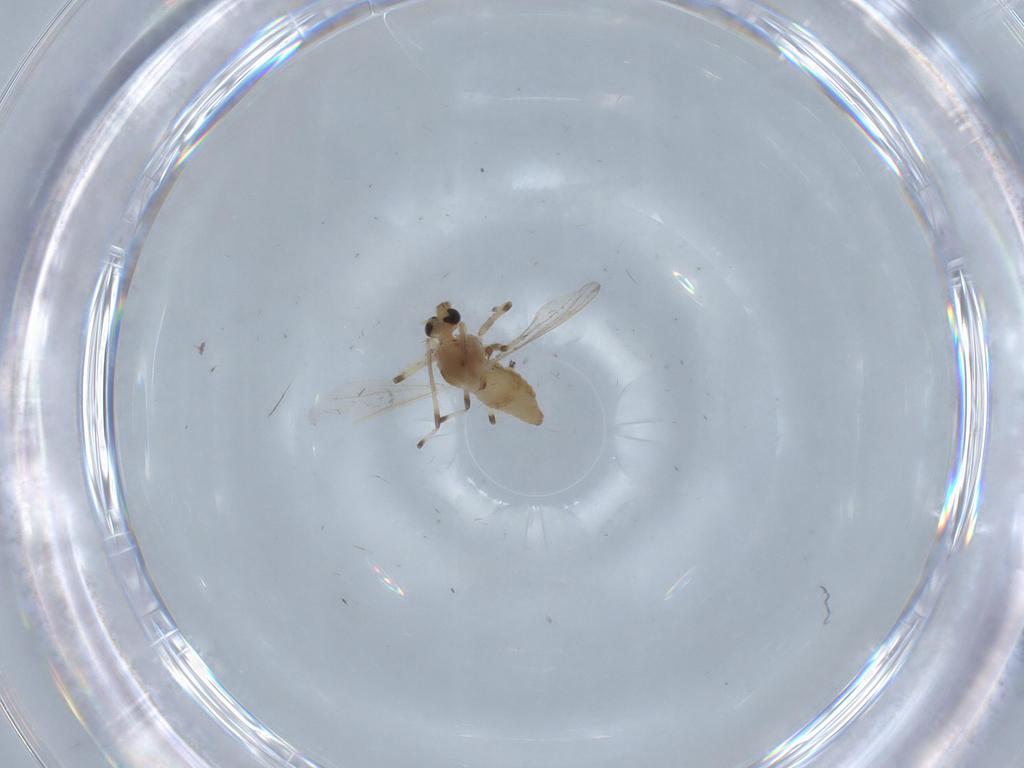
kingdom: Animalia
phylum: Arthropoda
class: Insecta
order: Diptera
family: Chironomidae
